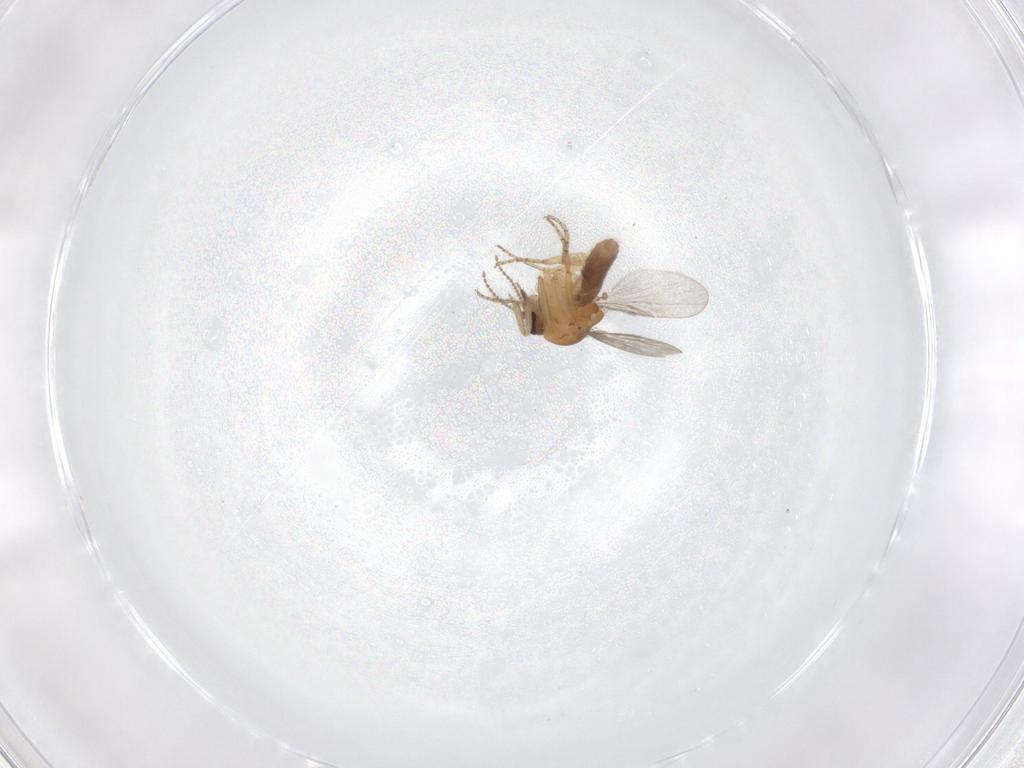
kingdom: Animalia
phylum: Arthropoda
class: Insecta
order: Diptera
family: Ceratopogonidae
